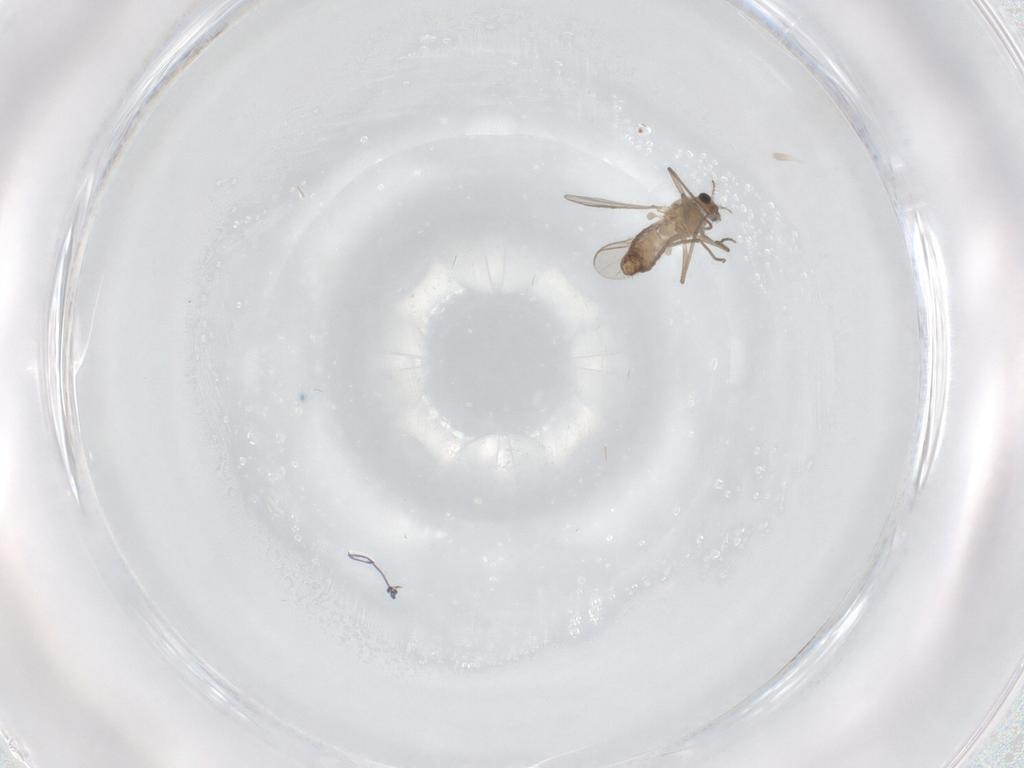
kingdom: Animalia
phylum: Arthropoda
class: Insecta
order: Diptera
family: Chironomidae
